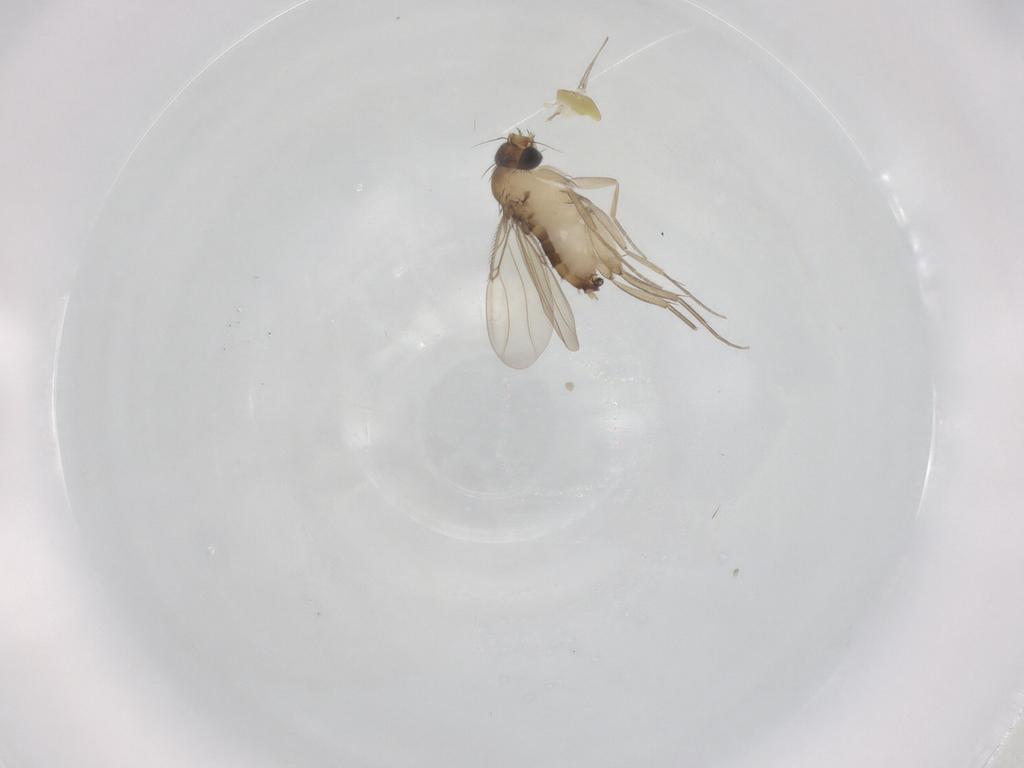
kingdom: Animalia
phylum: Arthropoda
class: Insecta
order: Diptera
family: Chironomidae
